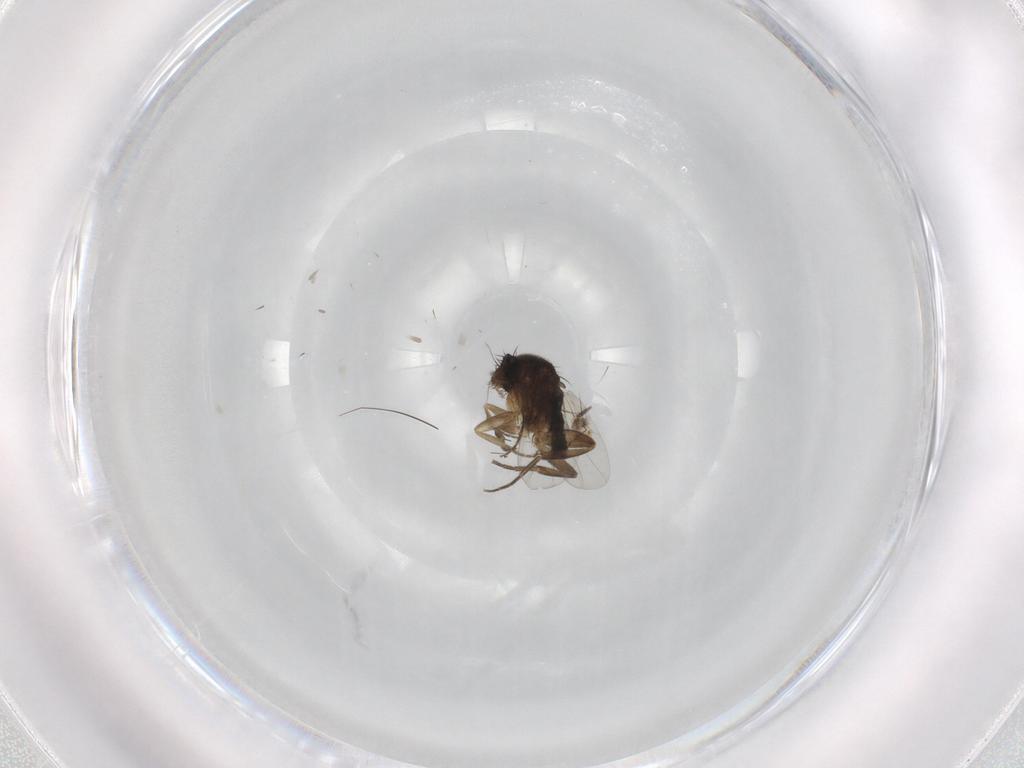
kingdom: Animalia
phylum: Arthropoda
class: Insecta
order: Diptera
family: Phoridae
